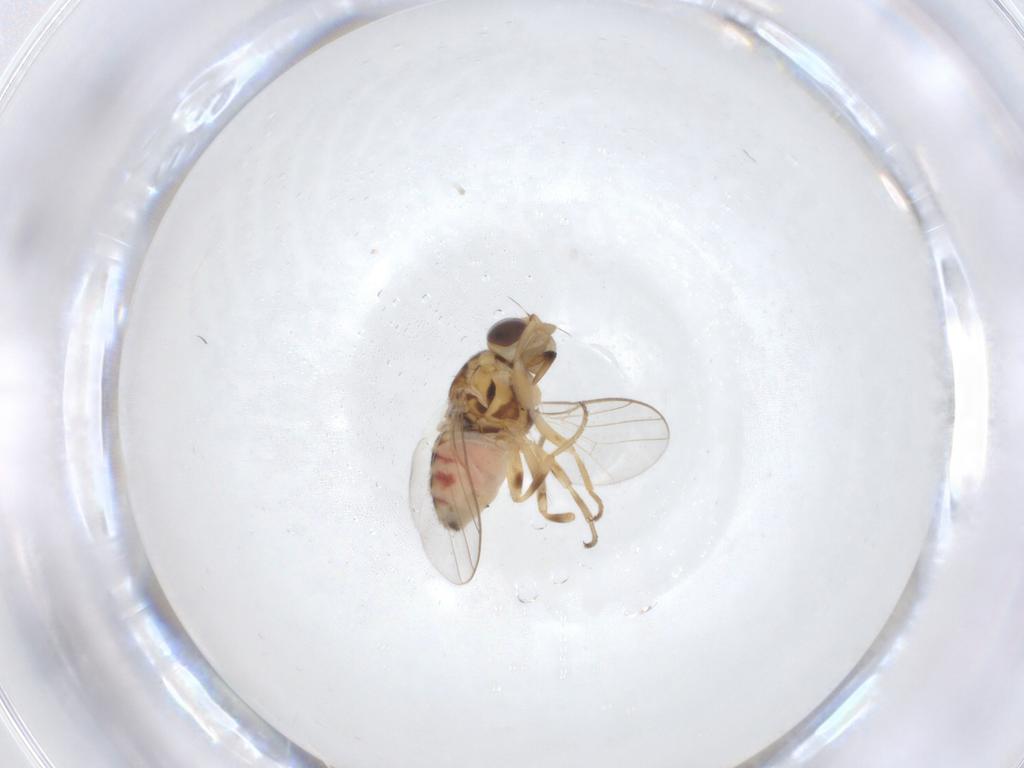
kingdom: Animalia
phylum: Arthropoda
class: Insecta
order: Diptera
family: Chloropidae
